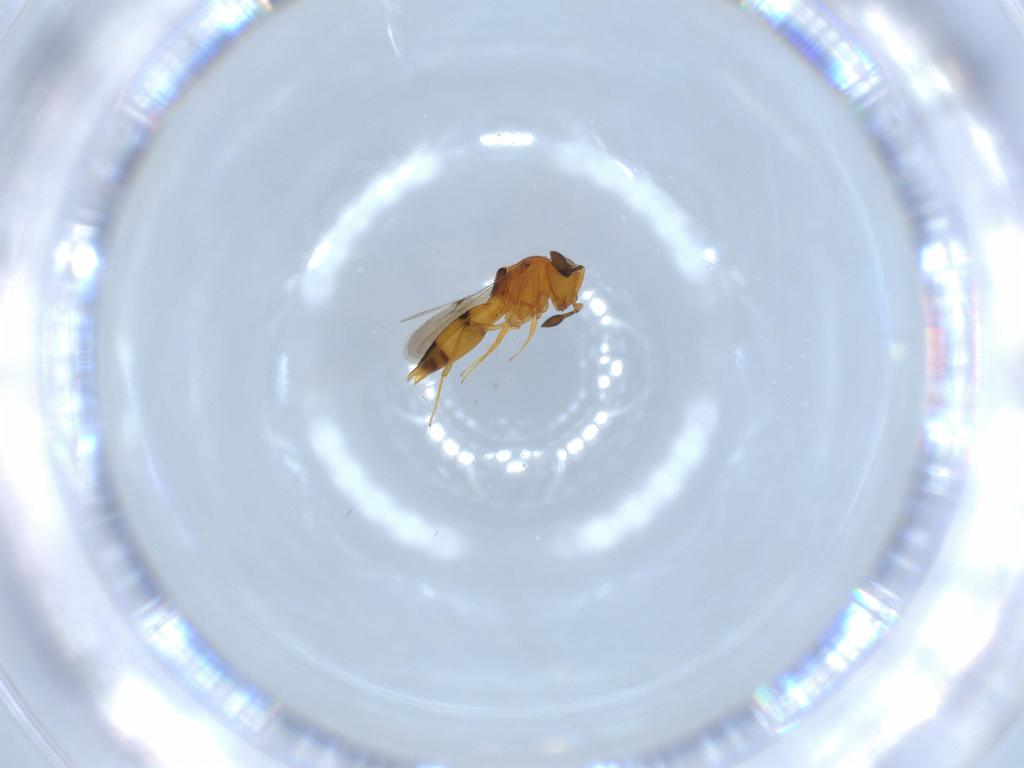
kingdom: Animalia
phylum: Arthropoda
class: Insecta
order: Hymenoptera
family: Scelionidae
